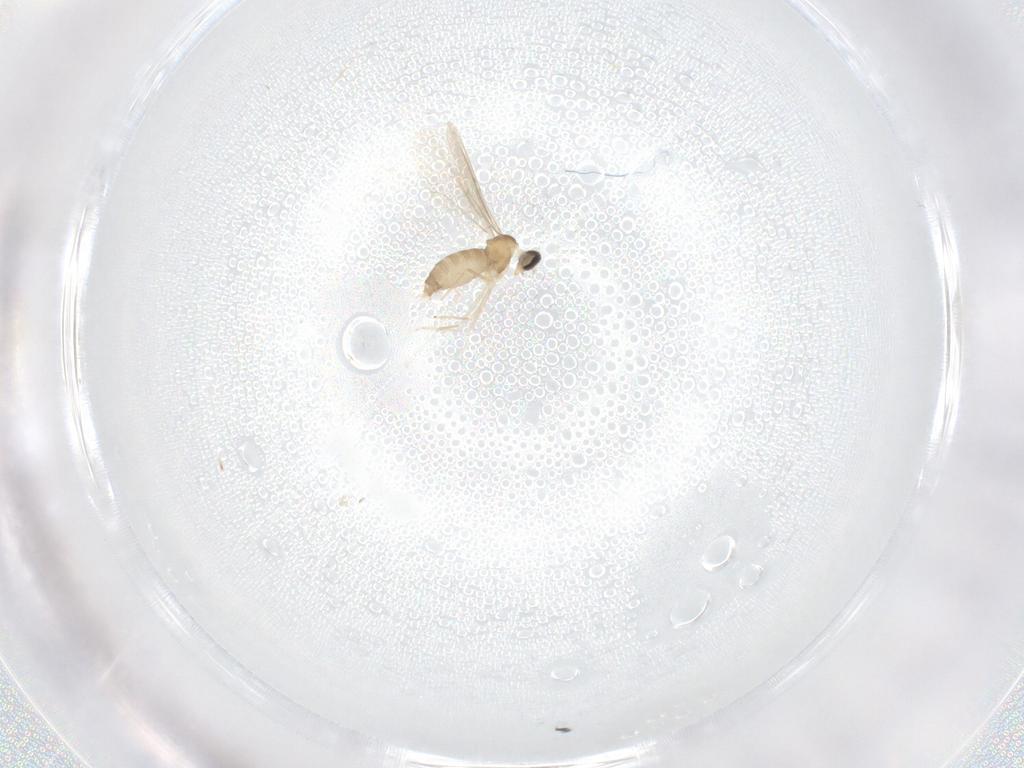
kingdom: Animalia
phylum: Arthropoda
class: Insecta
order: Diptera
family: Cecidomyiidae
